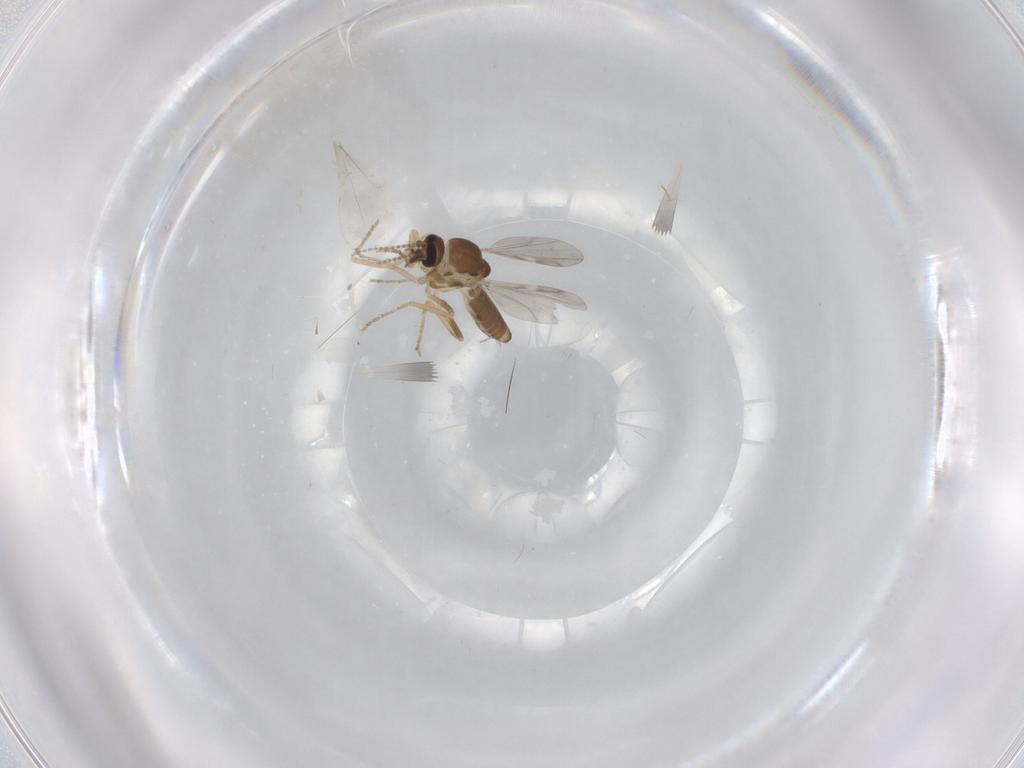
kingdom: Animalia
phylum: Arthropoda
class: Insecta
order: Diptera
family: Ceratopogonidae
